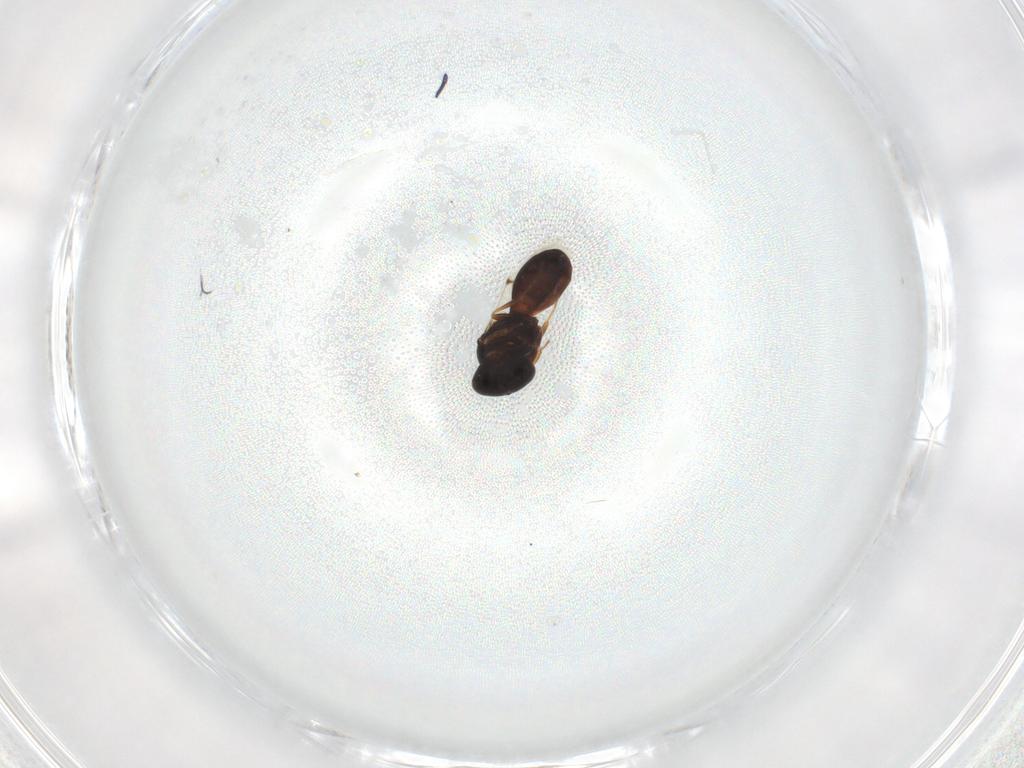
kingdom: Animalia
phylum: Arthropoda
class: Insecta
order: Hymenoptera
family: Scelionidae
